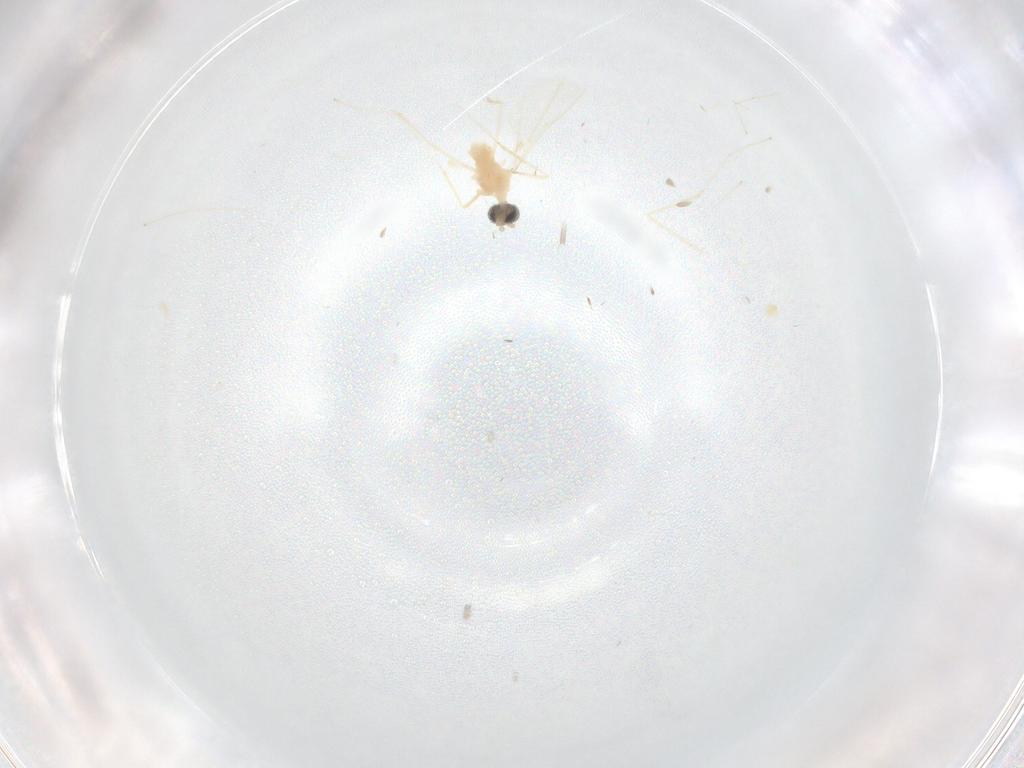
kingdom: Animalia
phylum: Arthropoda
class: Insecta
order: Diptera
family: Cecidomyiidae
